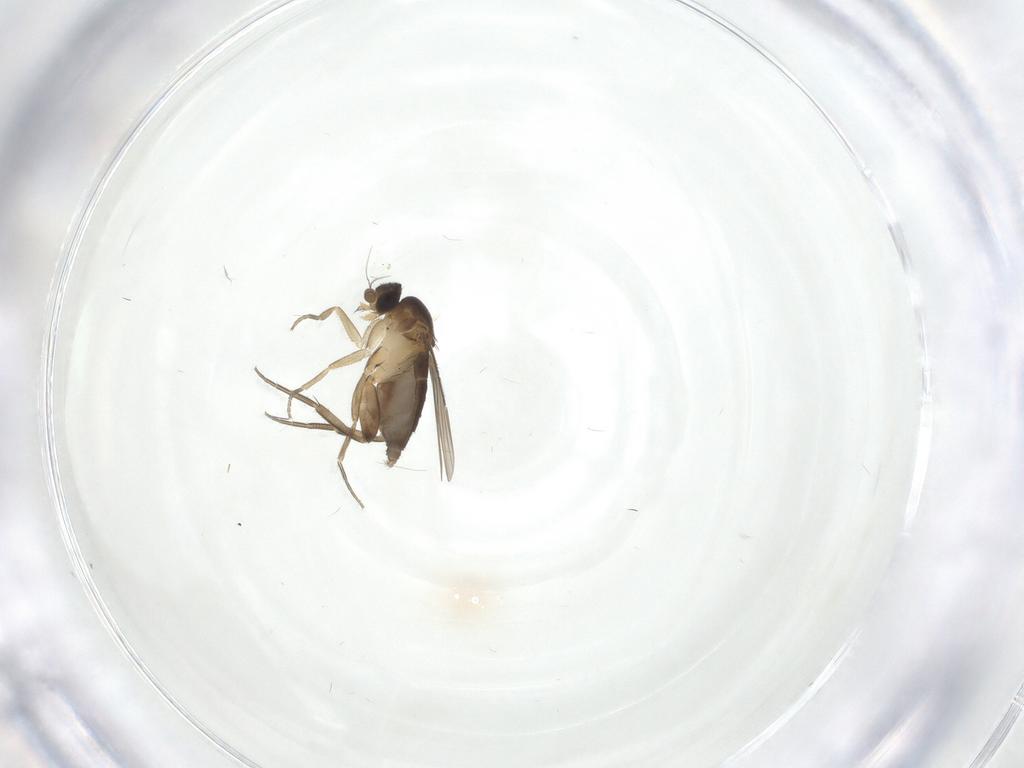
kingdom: Animalia
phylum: Arthropoda
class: Insecta
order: Diptera
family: Phoridae
